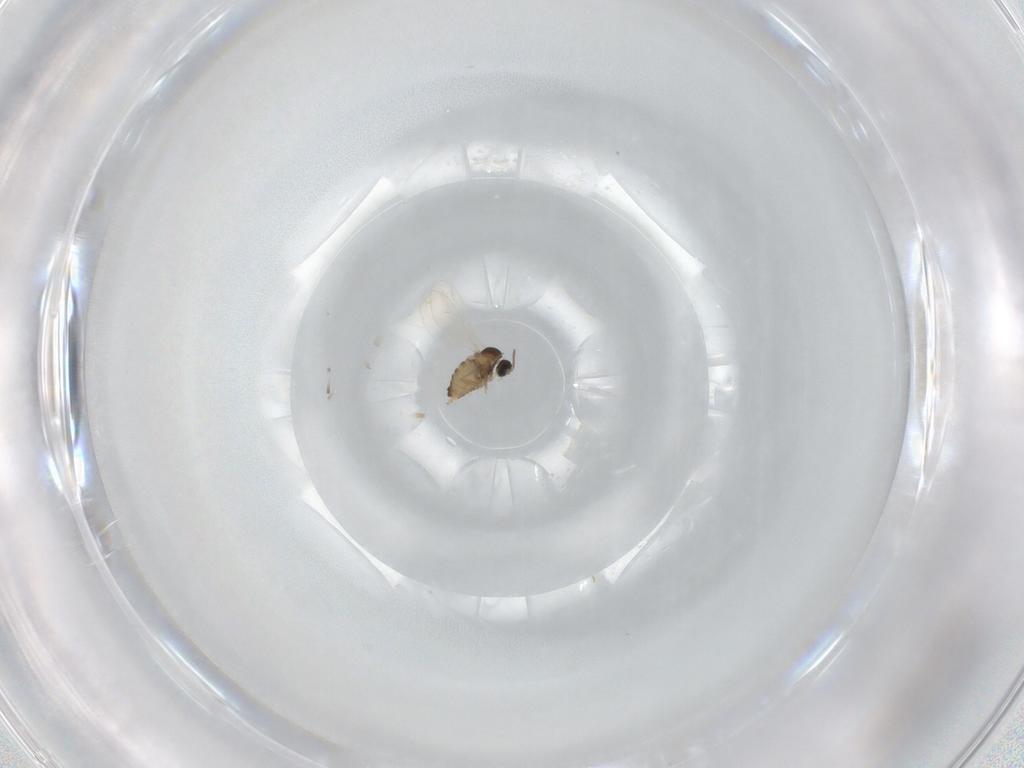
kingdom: Animalia
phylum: Arthropoda
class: Insecta
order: Diptera
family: Cecidomyiidae
